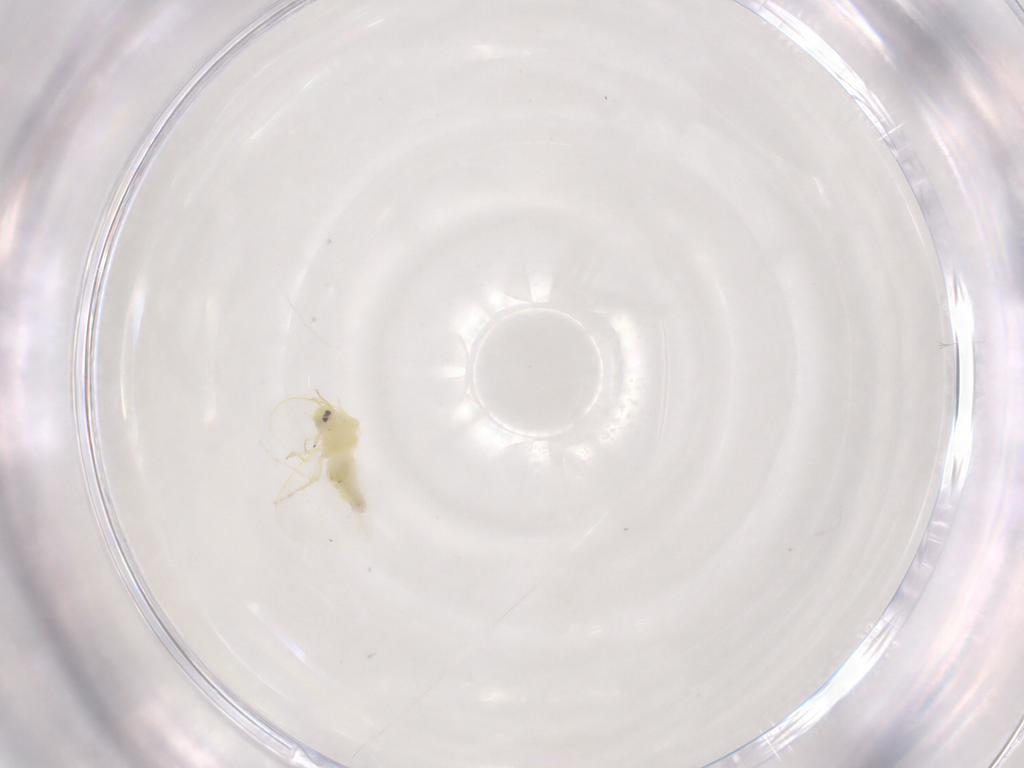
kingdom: Animalia
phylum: Arthropoda
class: Insecta
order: Hemiptera
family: Aleyrodidae
